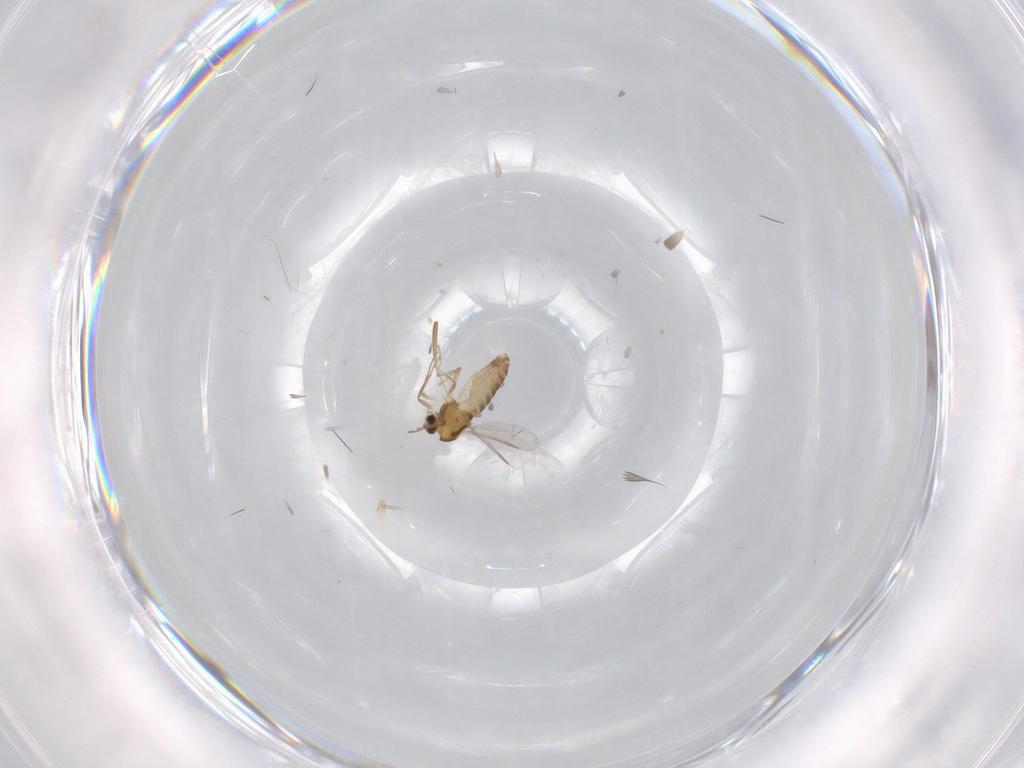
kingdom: Animalia
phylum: Arthropoda
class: Insecta
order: Diptera
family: Chironomidae
